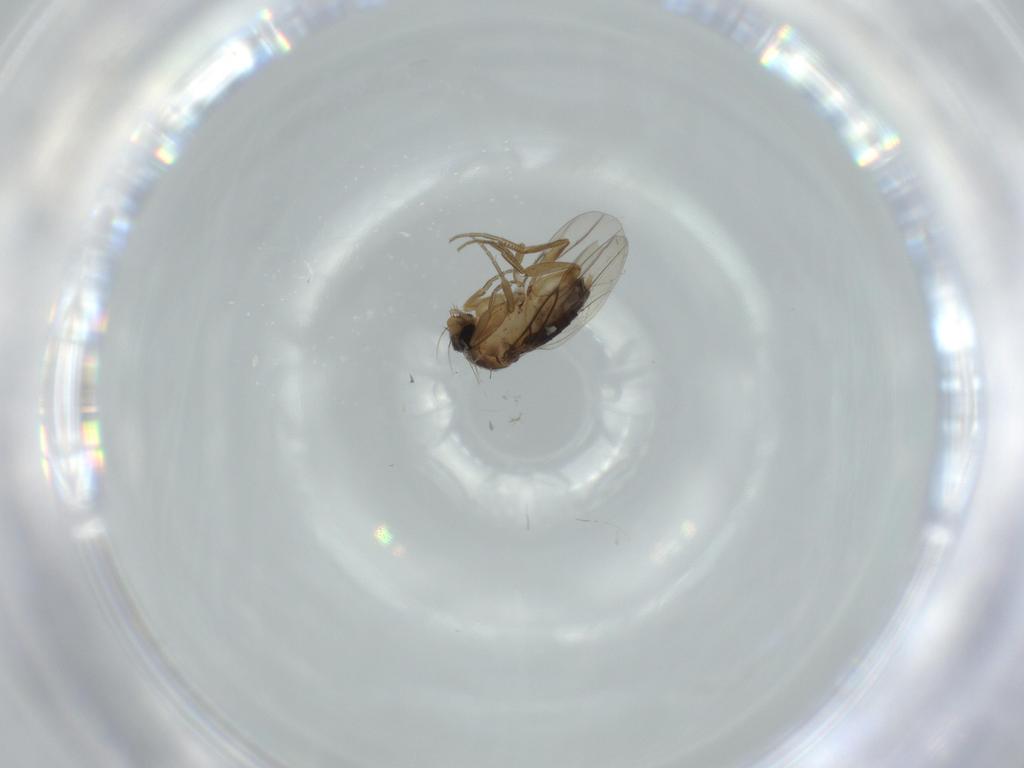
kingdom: Animalia
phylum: Arthropoda
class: Insecta
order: Diptera
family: Phoridae
